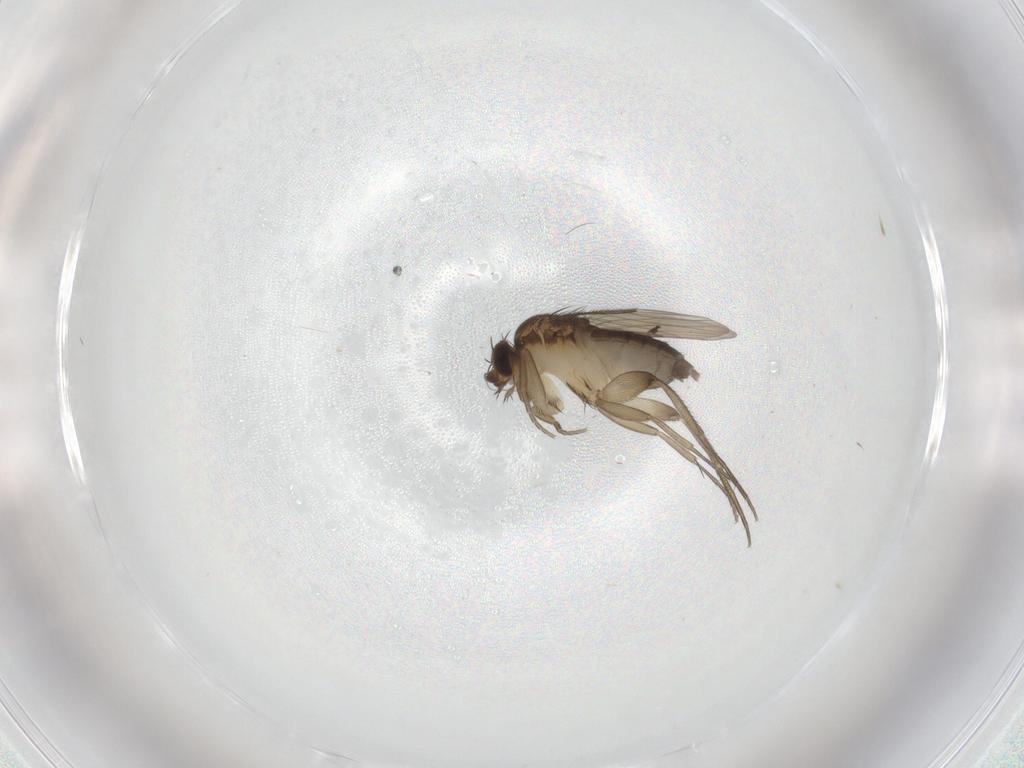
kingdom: Animalia
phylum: Arthropoda
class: Insecta
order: Diptera
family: Phoridae
